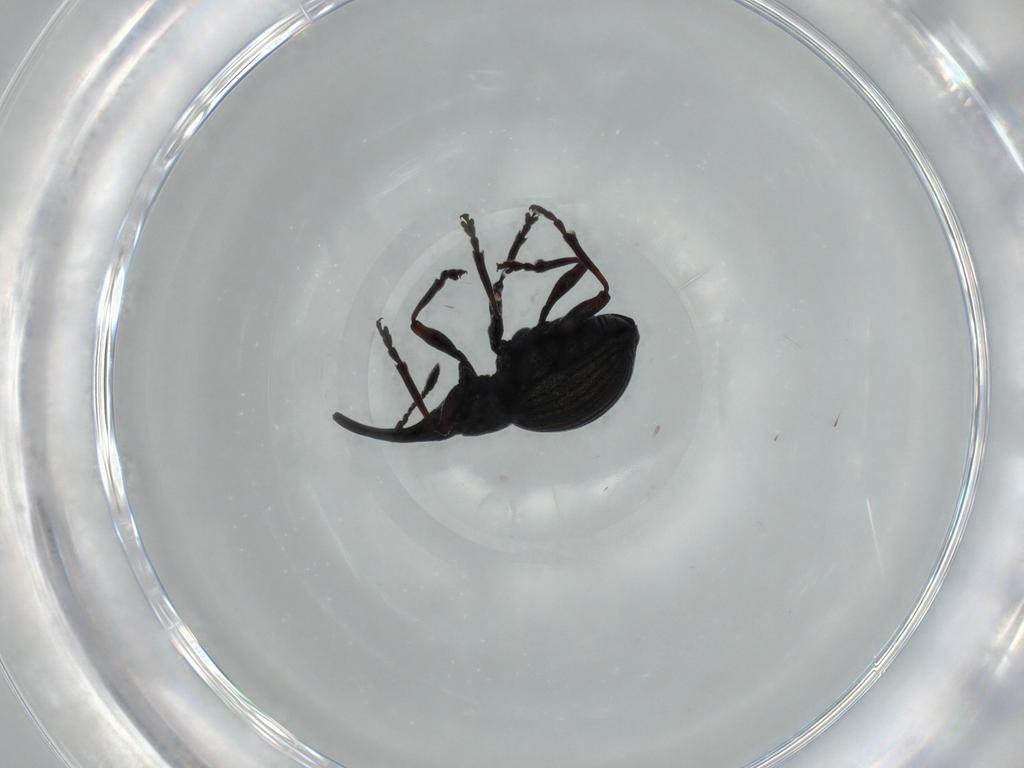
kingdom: Animalia
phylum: Arthropoda
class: Insecta
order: Coleoptera
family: Brentidae
